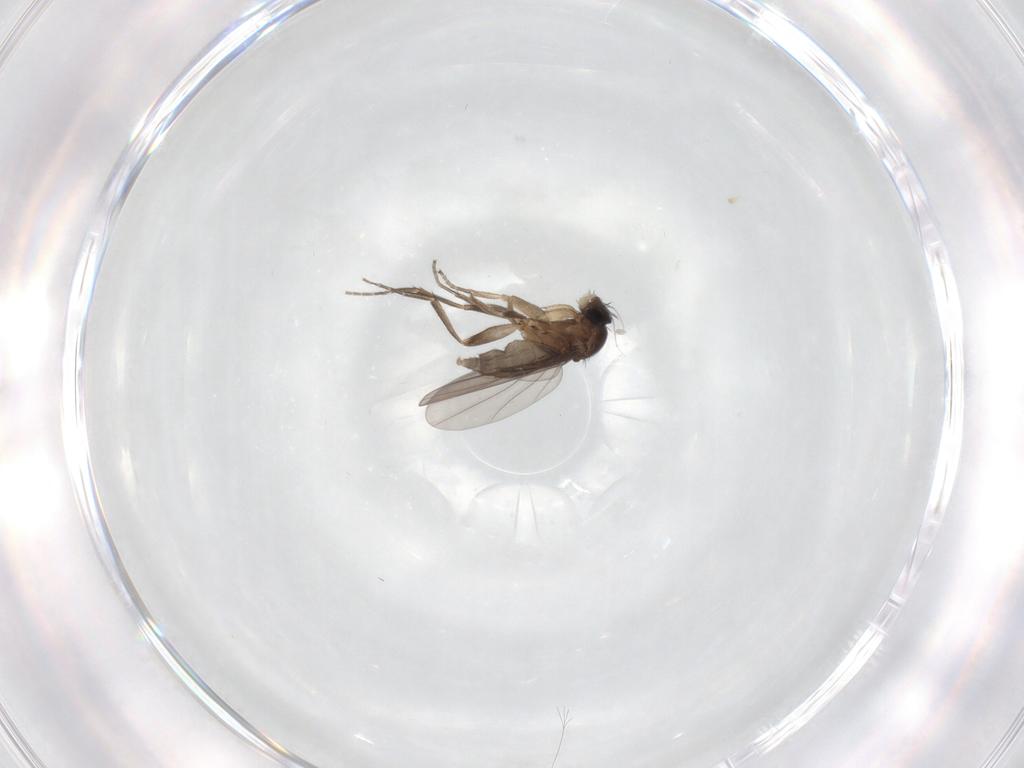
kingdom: Animalia
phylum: Arthropoda
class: Insecta
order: Diptera
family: Phoridae
